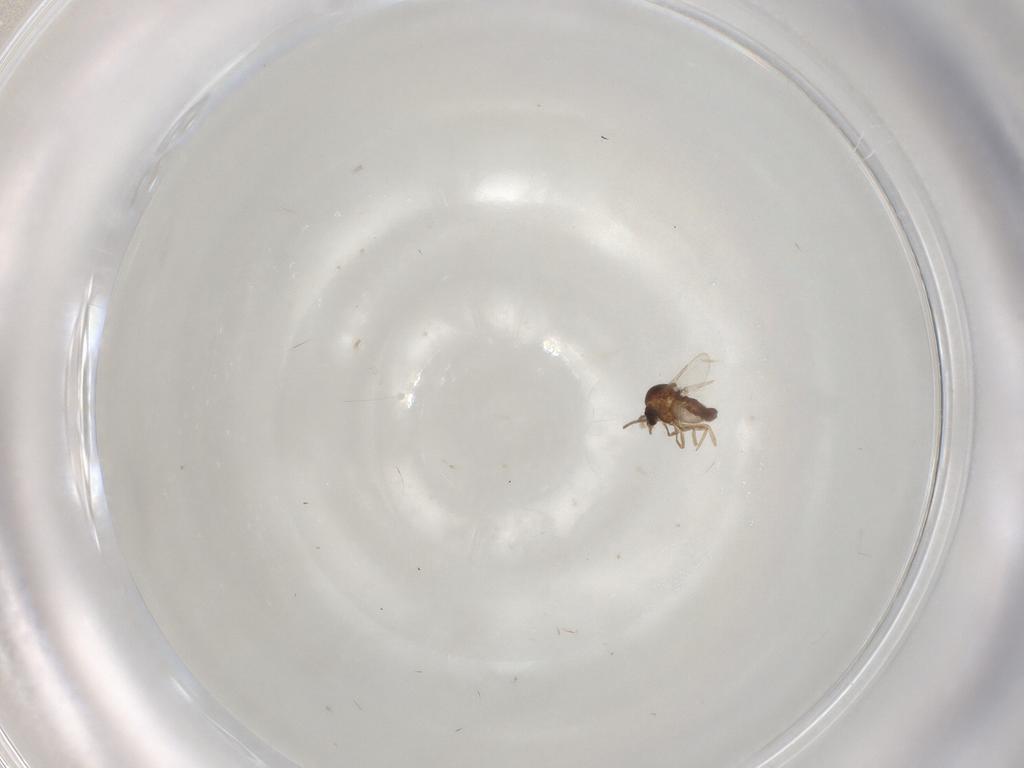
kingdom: Animalia
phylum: Arthropoda
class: Insecta
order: Diptera
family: Ceratopogonidae
